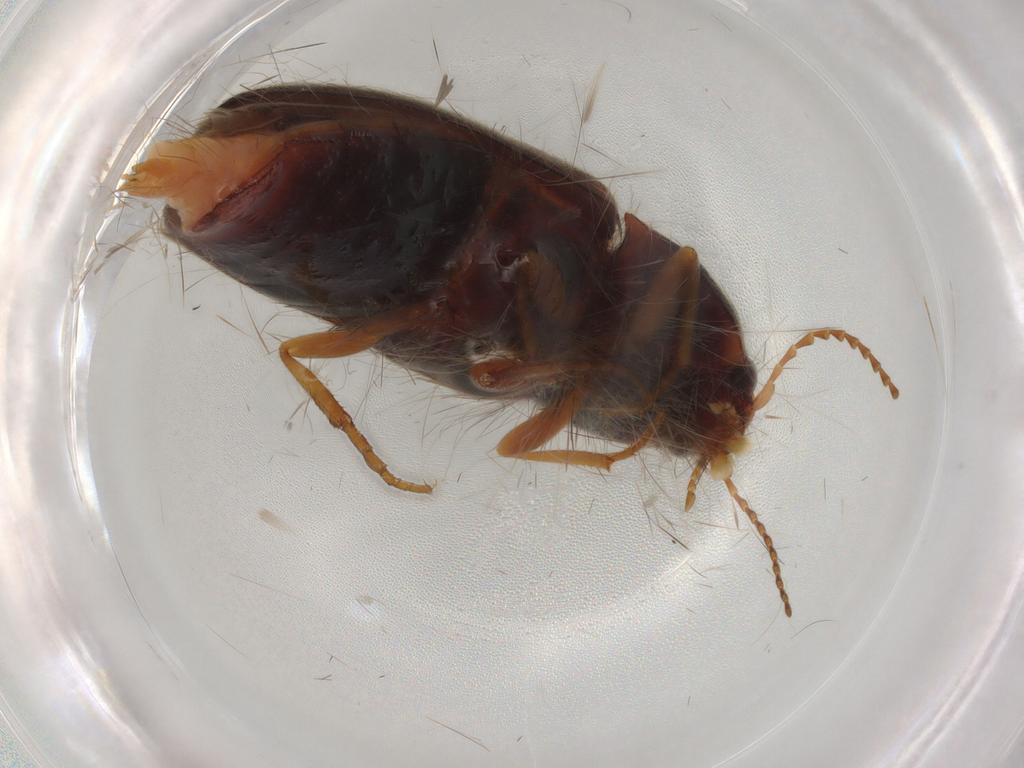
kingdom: Animalia
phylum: Arthropoda
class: Insecta
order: Coleoptera
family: Elateridae
